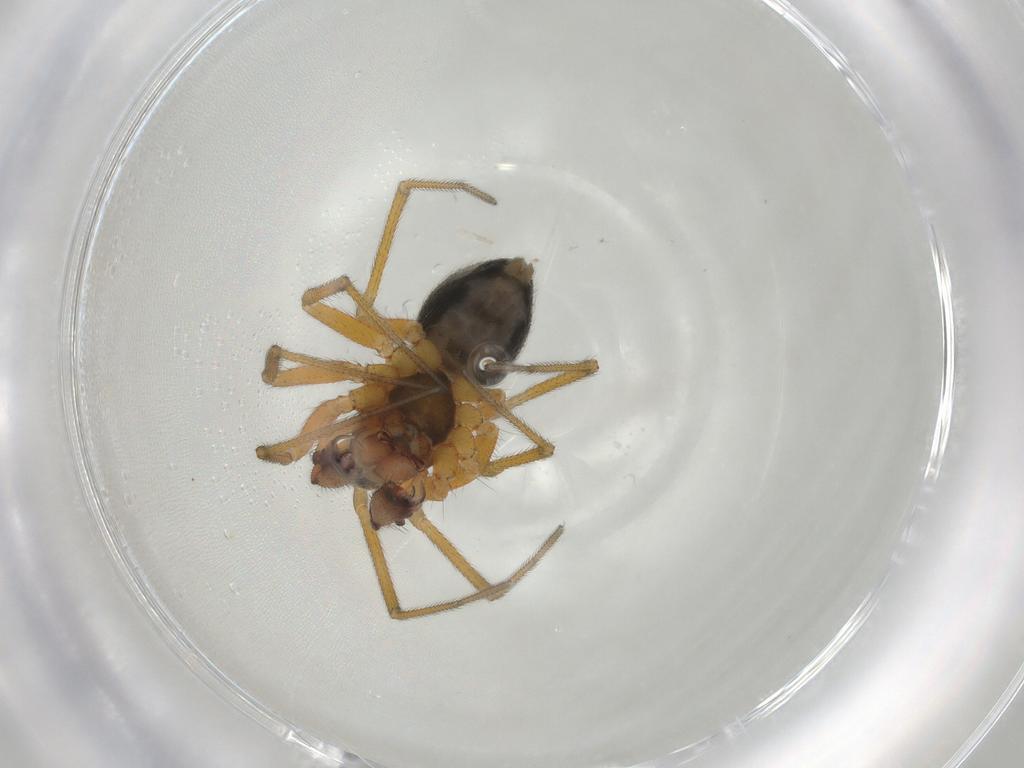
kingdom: Animalia
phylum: Arthropoda
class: Arachnida
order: Araneae
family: Linyphiidae
